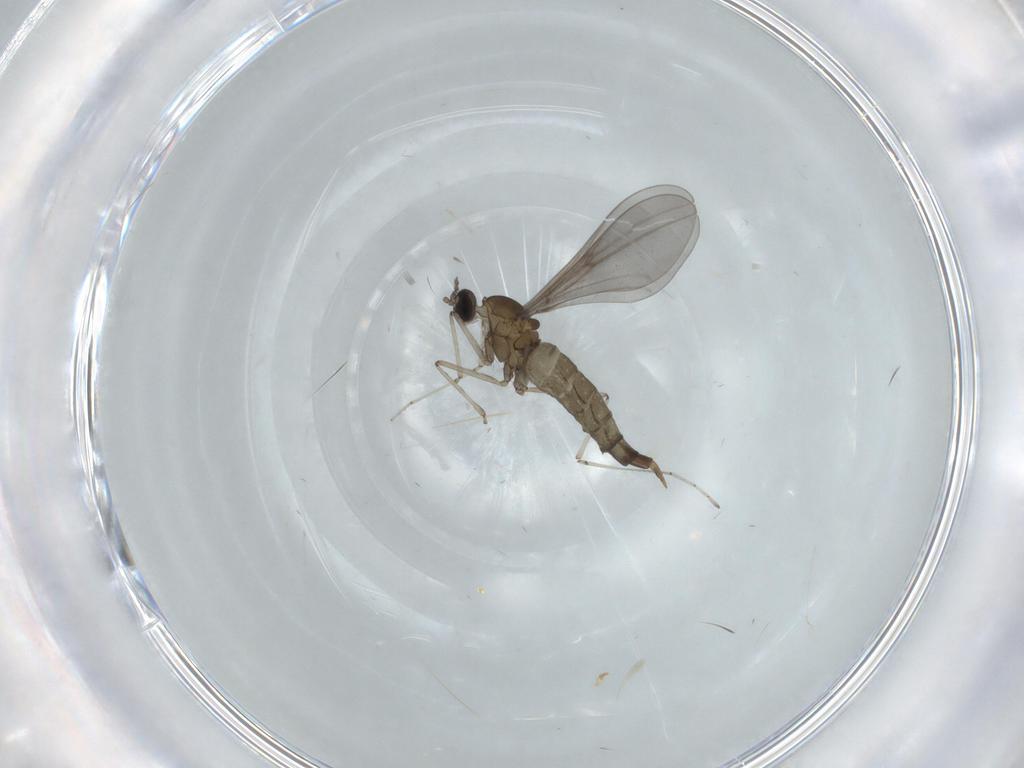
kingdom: Animalia
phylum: Arthropoda
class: Insecta
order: Diptera
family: Cecidomyiidae
